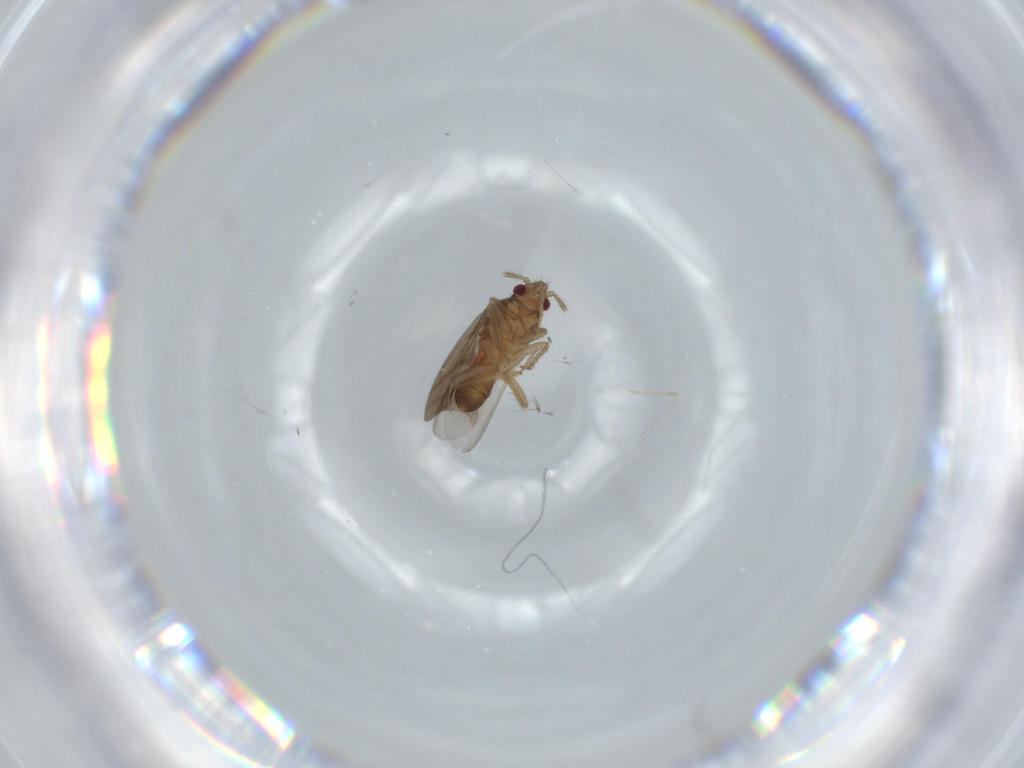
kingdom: Animalia
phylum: Arthropoda
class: Insecta
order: Hemiptera
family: Ceratocombidae
